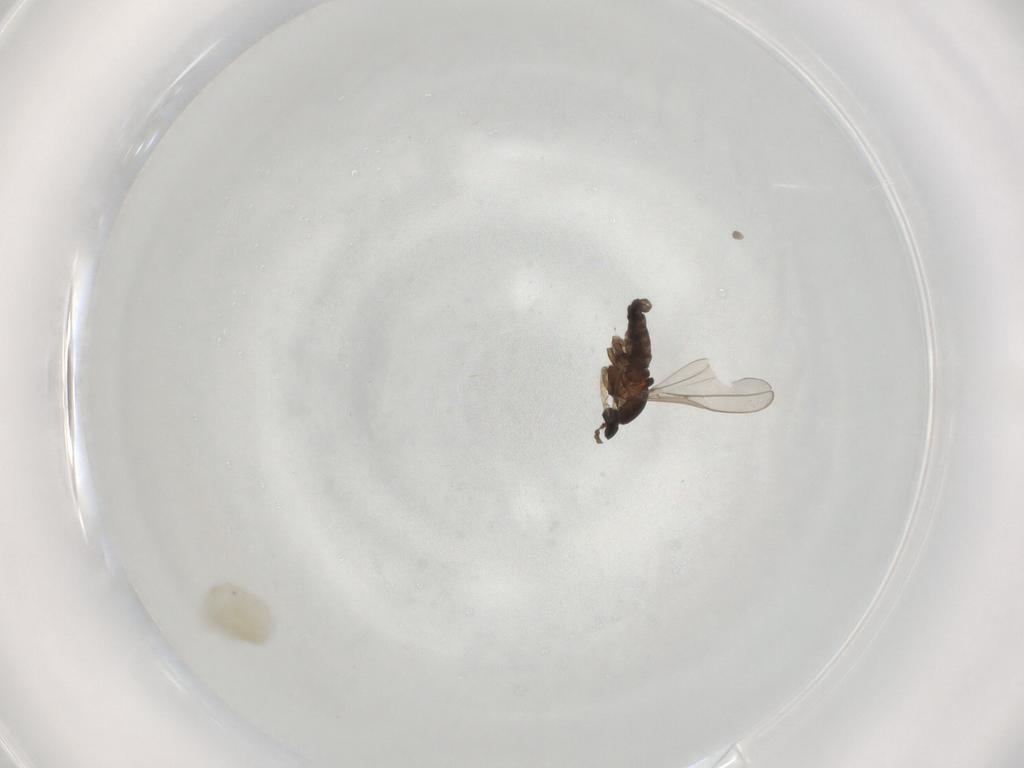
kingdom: Animalia
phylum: Arthropoda
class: Insecta
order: Diptera
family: Cecidomyiidae
